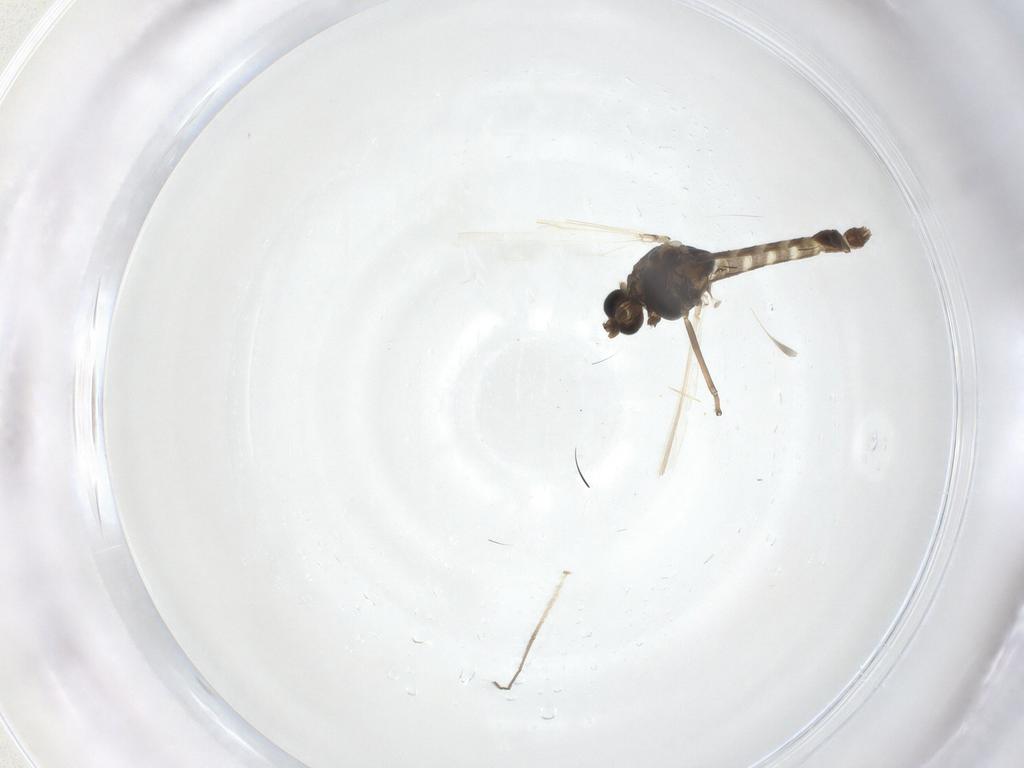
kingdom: Animalia
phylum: Arthropoda
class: Insecta
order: Diptera
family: Chironomidae
